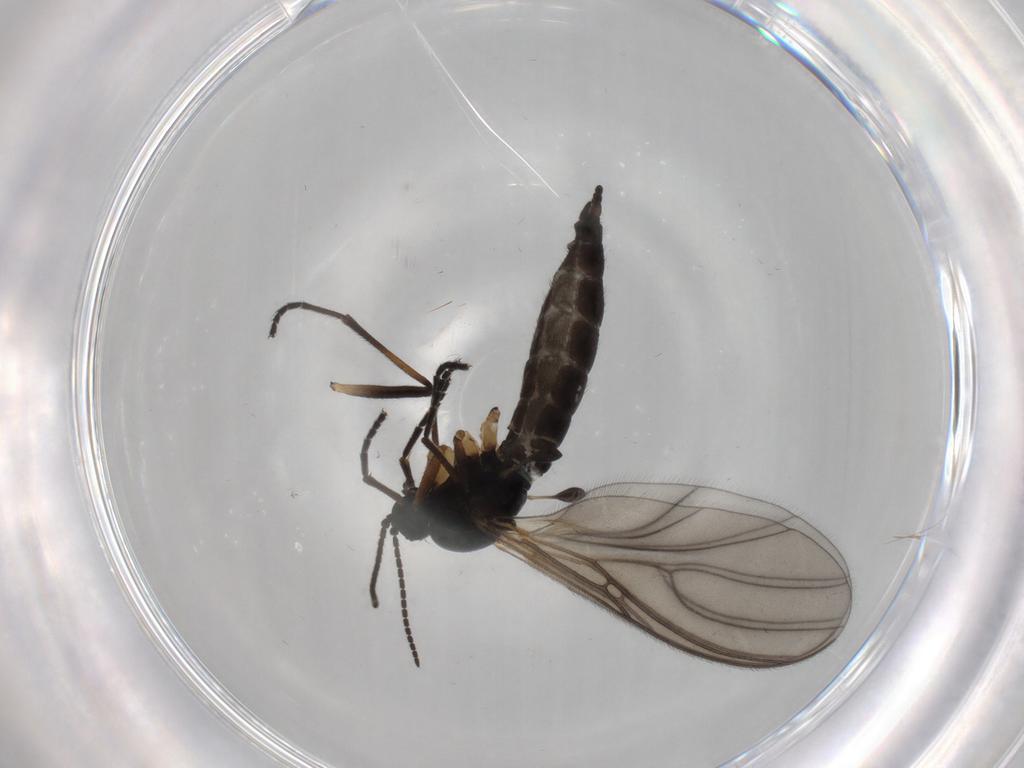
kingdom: Animalia
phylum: Arthropoda
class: Insecta
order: Diptera
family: Sciaridae
